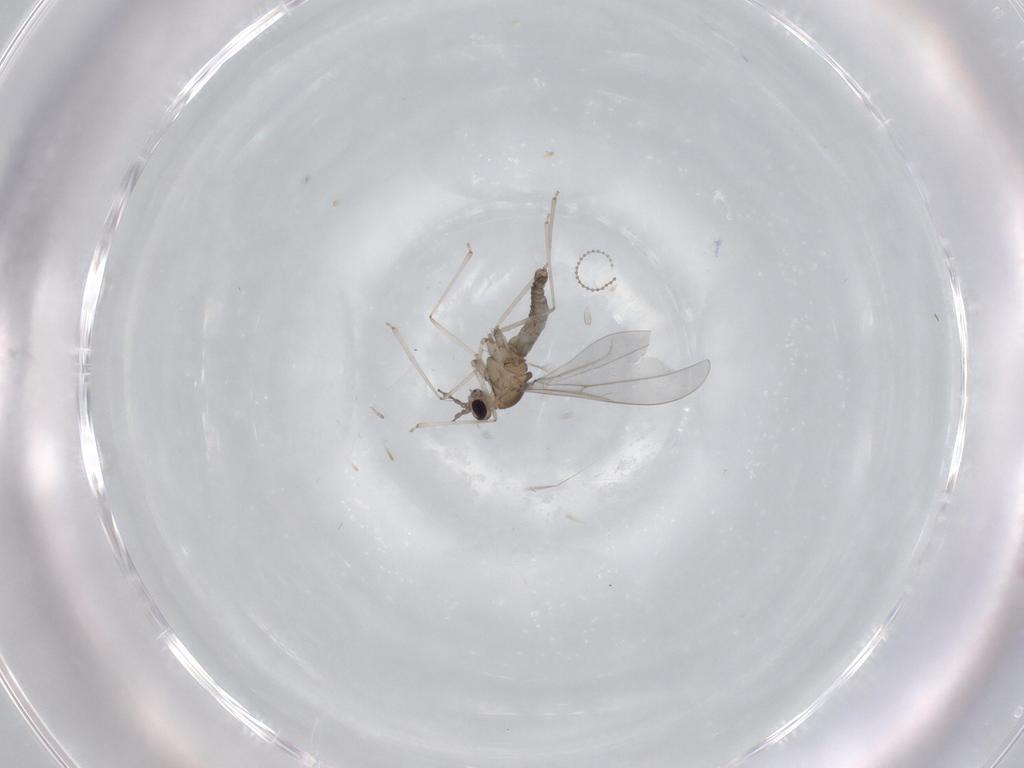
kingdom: Animalia
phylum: Arthropoda
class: Insecta
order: Diptera
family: Cecidomyiidae
